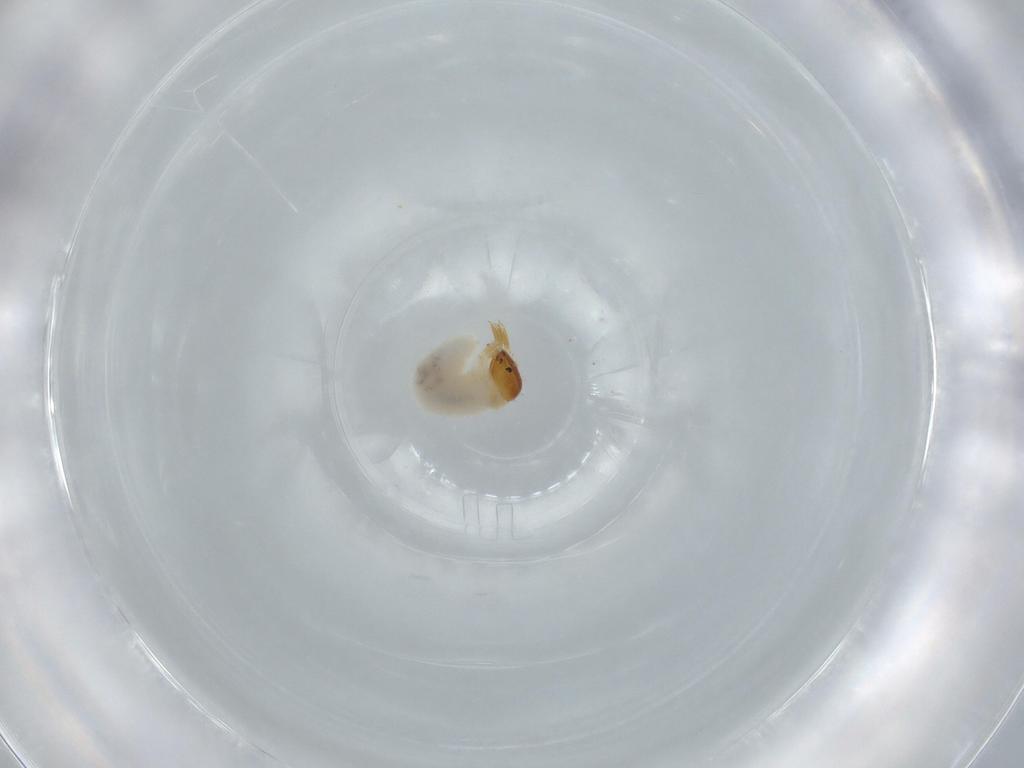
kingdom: Animalia
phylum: Arthropoda
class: Insecta
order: Coleoptera
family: Chrysomelidae
